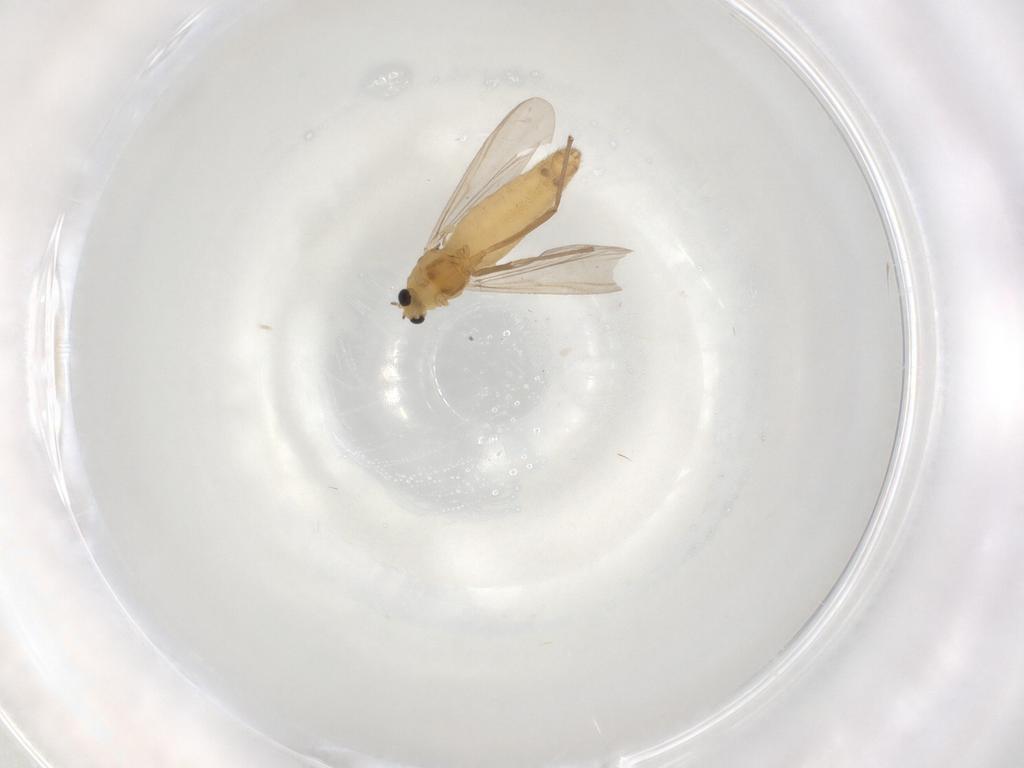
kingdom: Animalia
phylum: Arthropoda
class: Insecta
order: Diptera
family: Chironomidae
